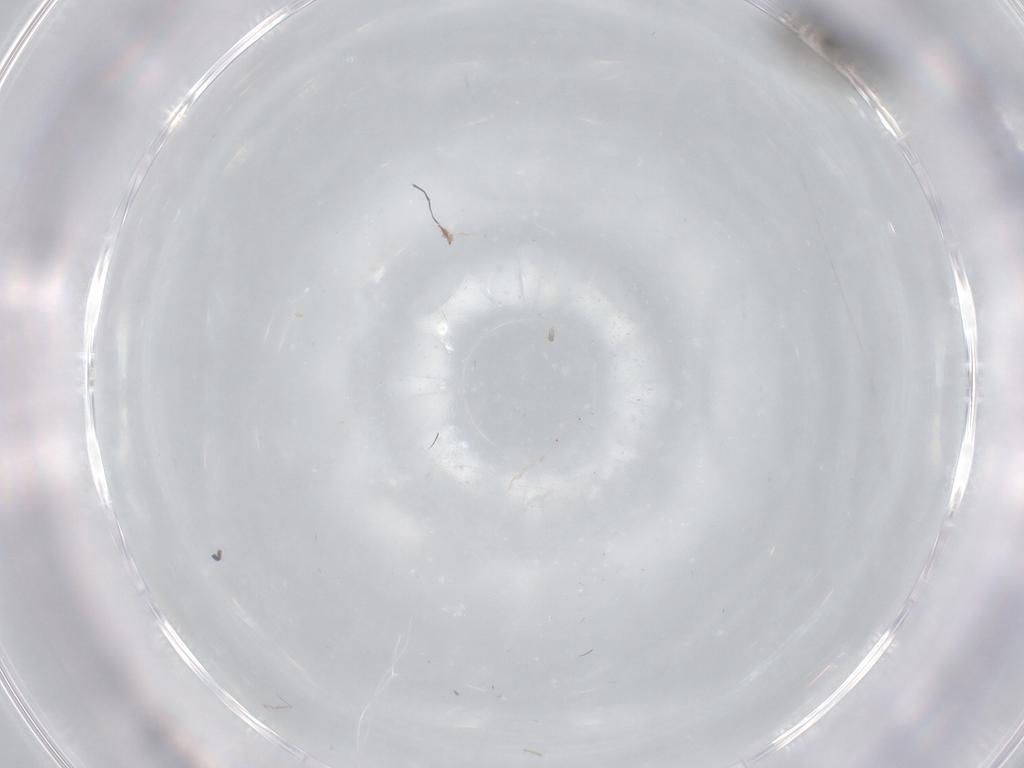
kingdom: Animalia
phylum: Arthropoda
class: Insecta
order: Diptera
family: Sciaridae
